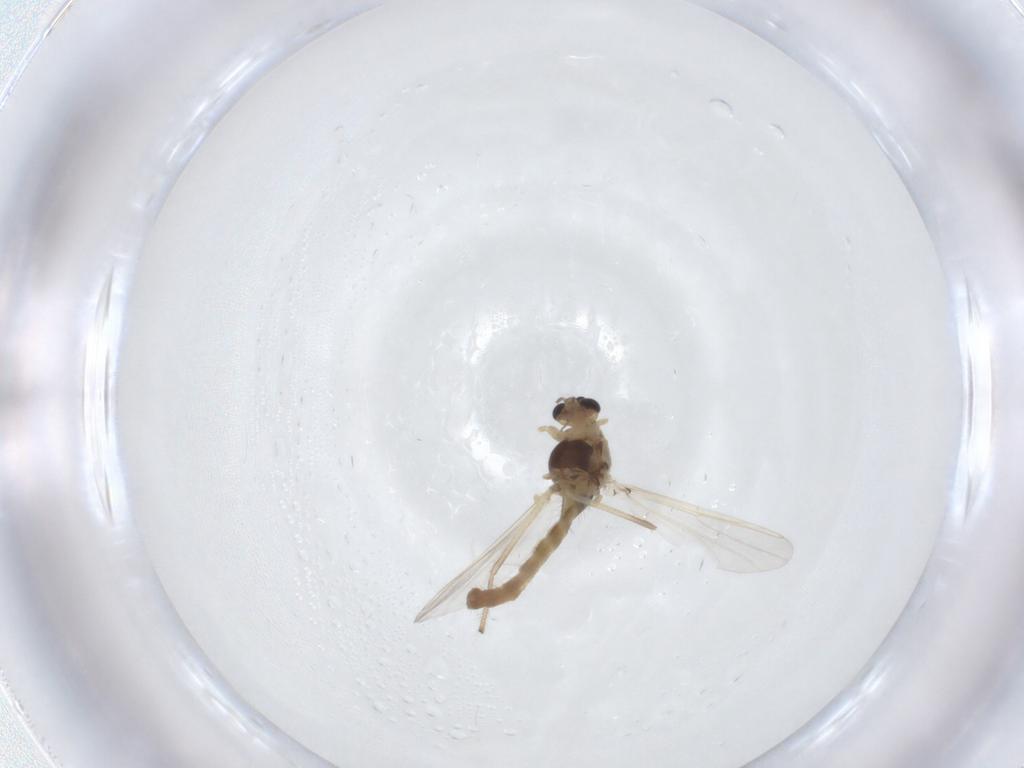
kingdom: Animalia
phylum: Arthropoda
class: Insecta
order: Diptera
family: Chironomidae
